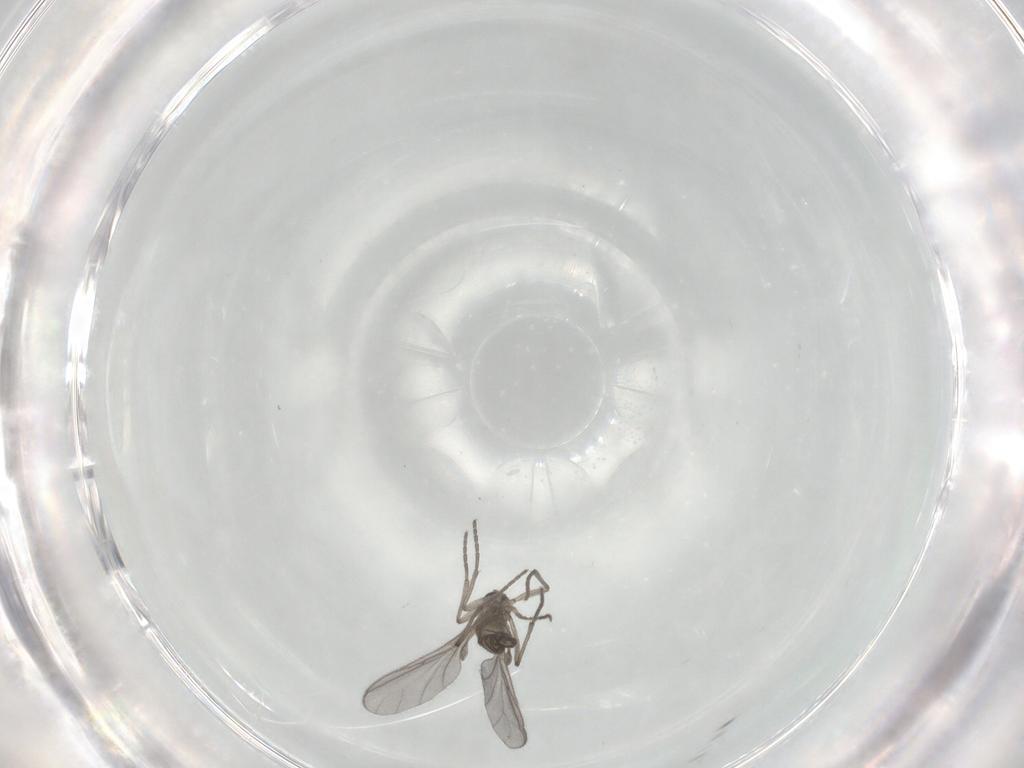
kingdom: Animalia
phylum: Arthropoda
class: Insecta
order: Diptera
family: Sciaridae
